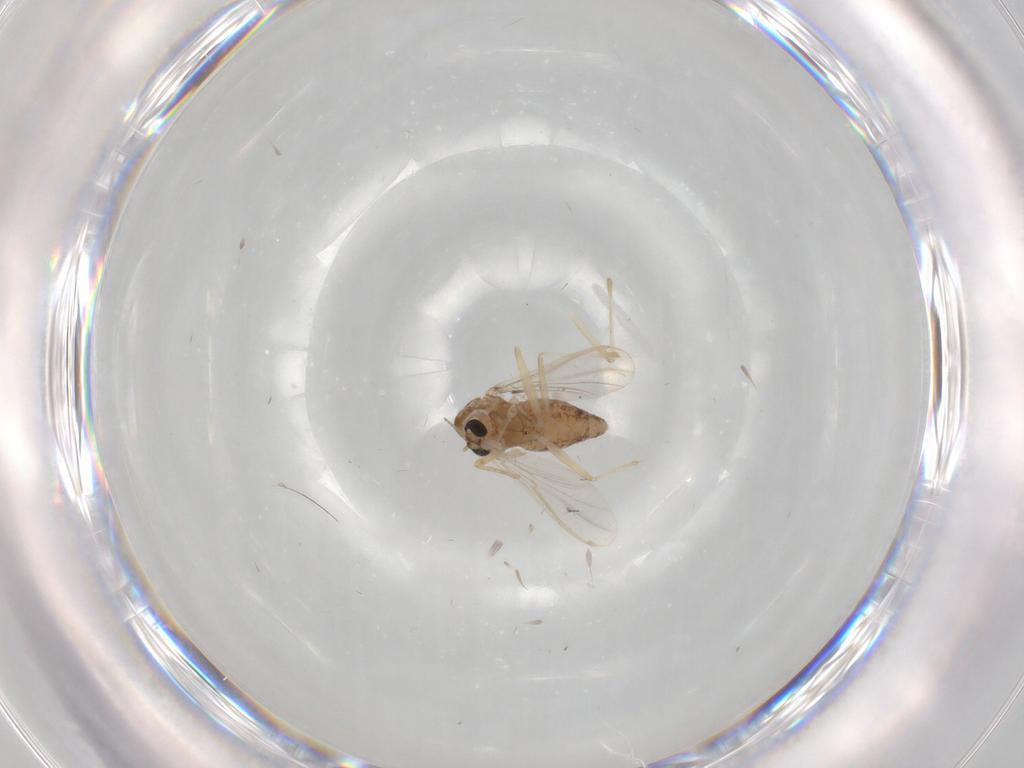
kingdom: Animalia
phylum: Arthropoda
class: Insecta
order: Diptera
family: Chironomidae
